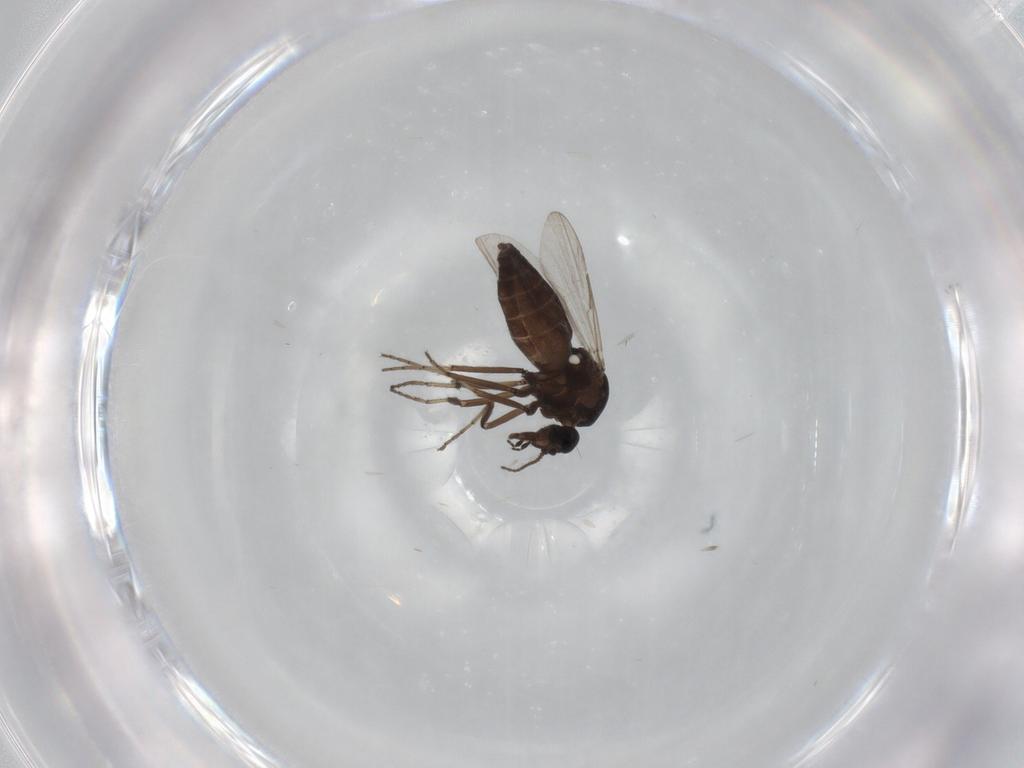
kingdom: Animalia
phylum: Arthropoda
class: Insecta
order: Diptera
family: Ceratopogonidae
